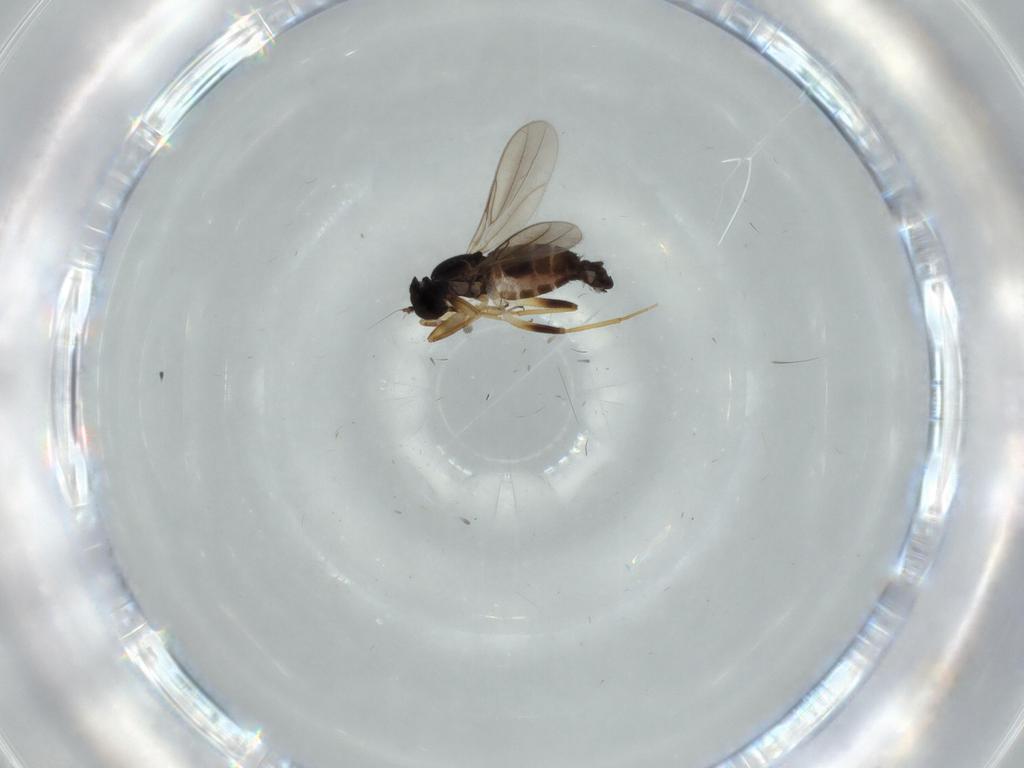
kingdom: Animalia
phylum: Arthropoda
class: Insecta
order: Diptera
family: Hybotidae
